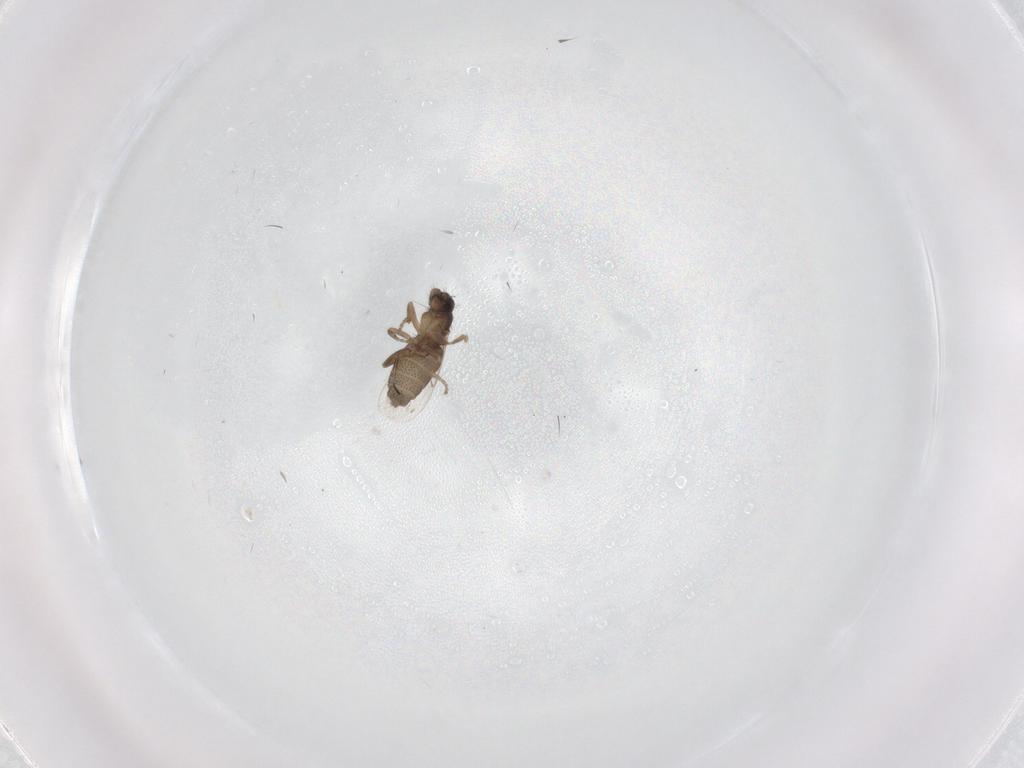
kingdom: Animalia
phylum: Arthropoda
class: Insecta
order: Diptera
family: Phoridae
